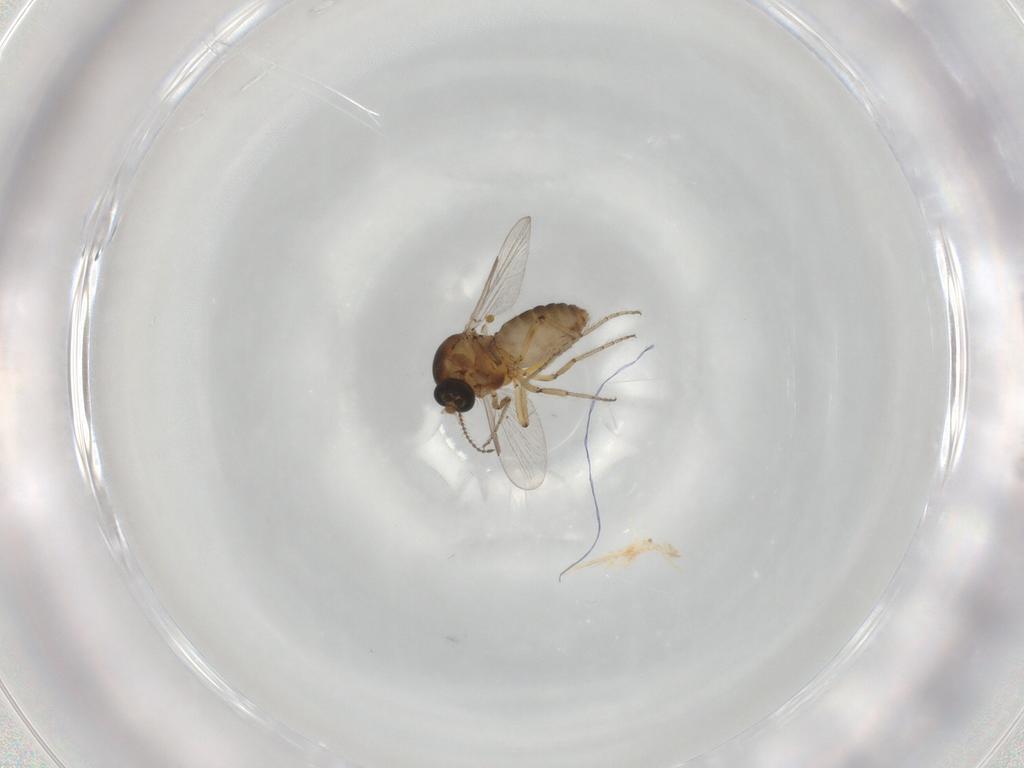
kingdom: Animalia
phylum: Arthropoda
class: Insecta
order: Diptera
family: Ceratopogonidae
